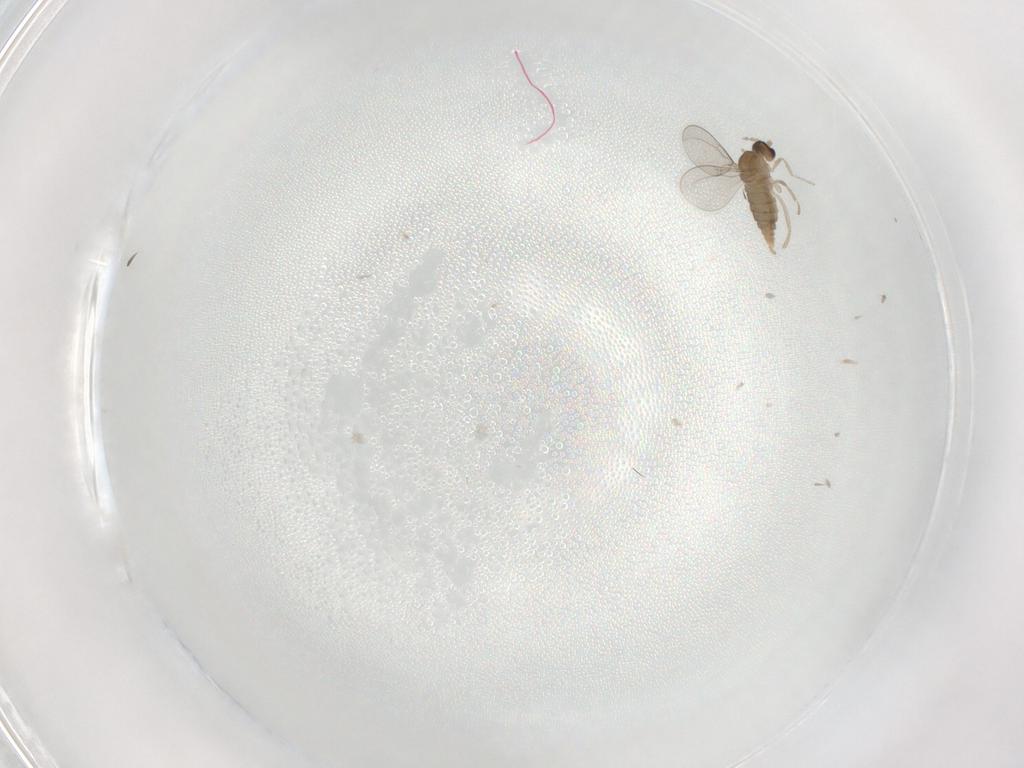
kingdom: Animalia
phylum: Arthropoda
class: Insecta
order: Diptera
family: Cecidomyiidae
